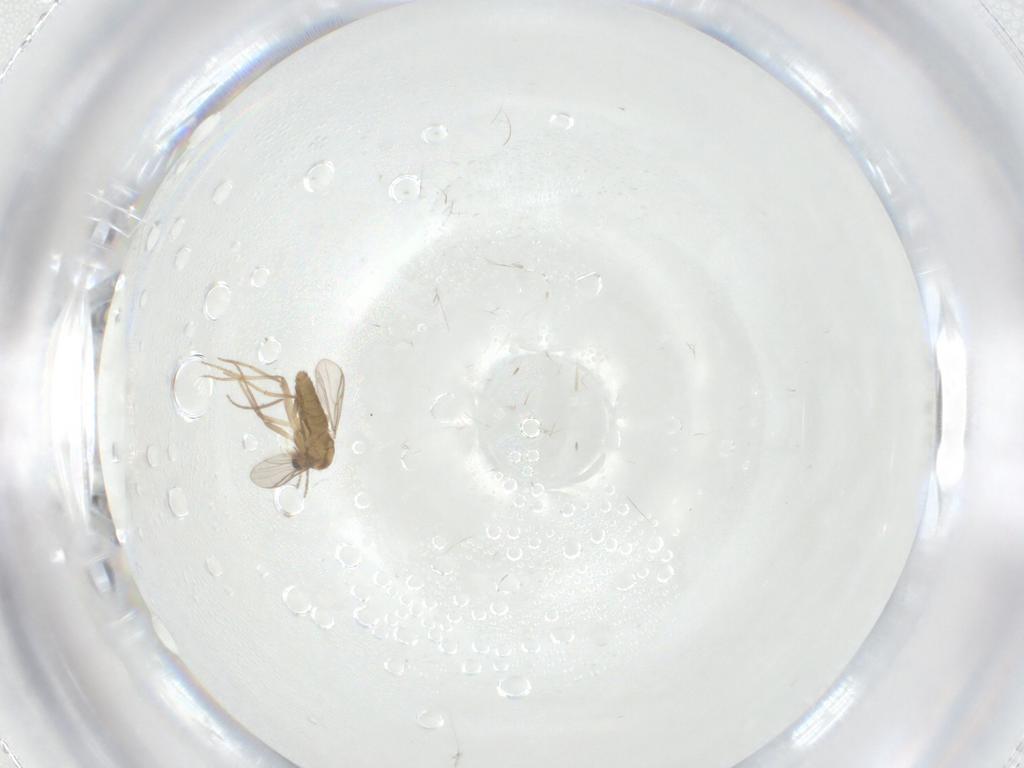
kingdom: Animalia
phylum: Arthropoda
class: Insecta
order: Diptera
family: Chironomidae
